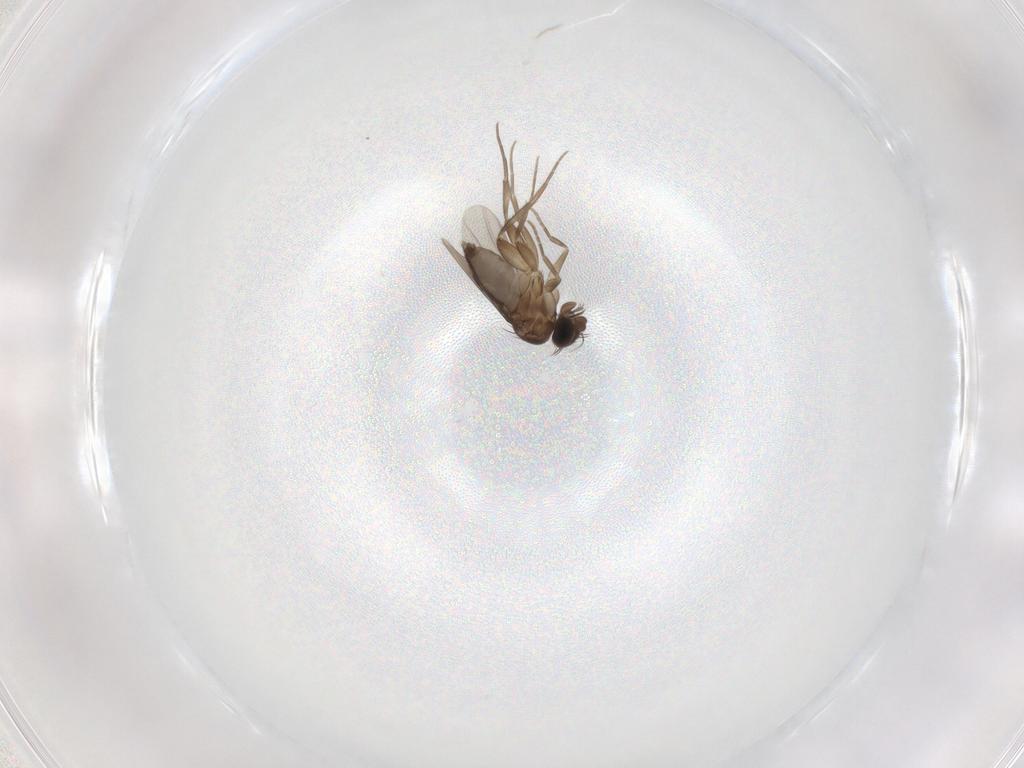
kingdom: Animalia
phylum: Arthropoda
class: Insecta
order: Diptera
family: Phoridae
